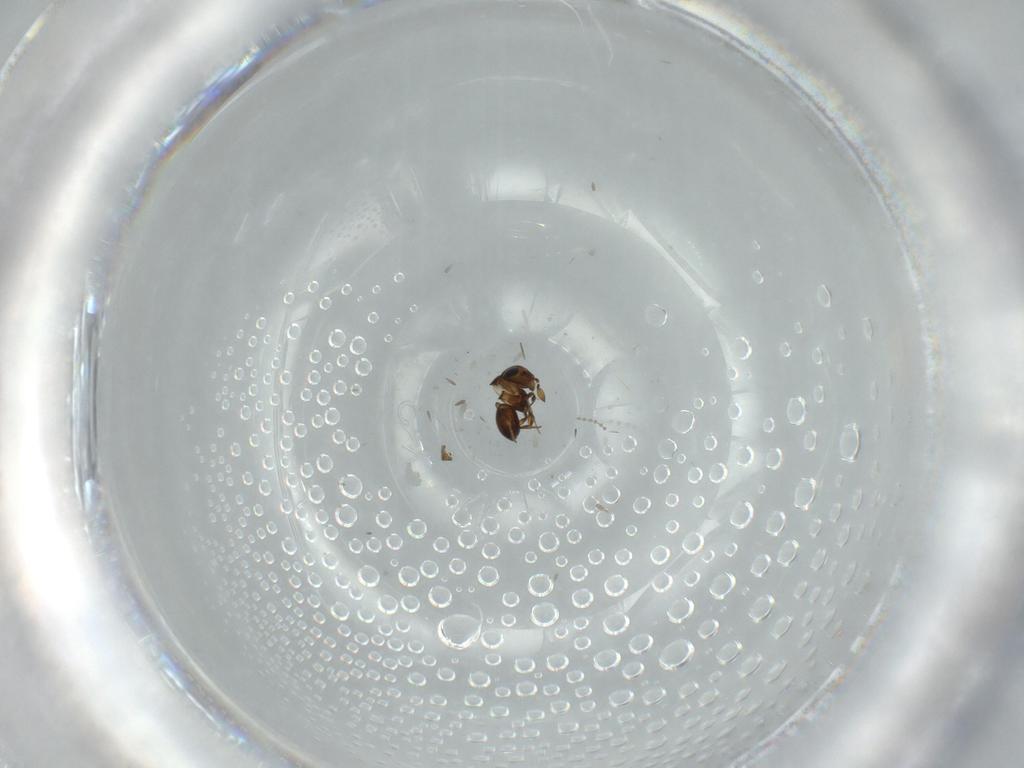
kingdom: Animalia
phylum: Arthropoda
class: Insecta
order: Hymenoptera
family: Scelionidae
